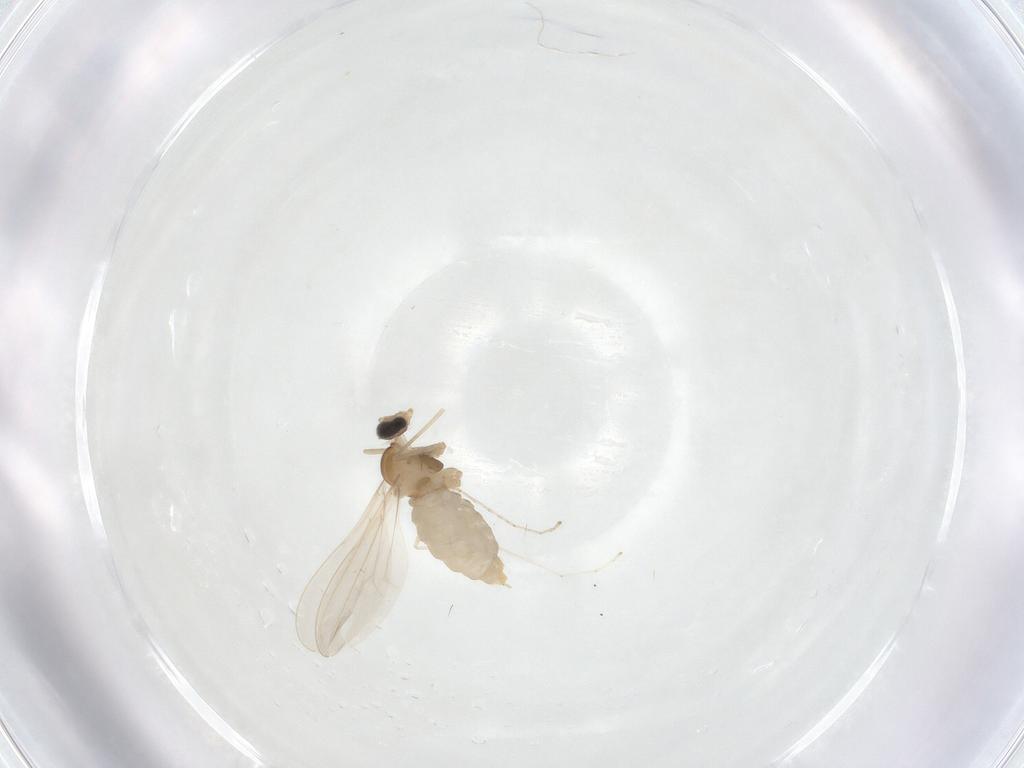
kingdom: Animalia
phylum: Arthropoda
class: Insecta
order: Diptera
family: Cecidomyiidae
